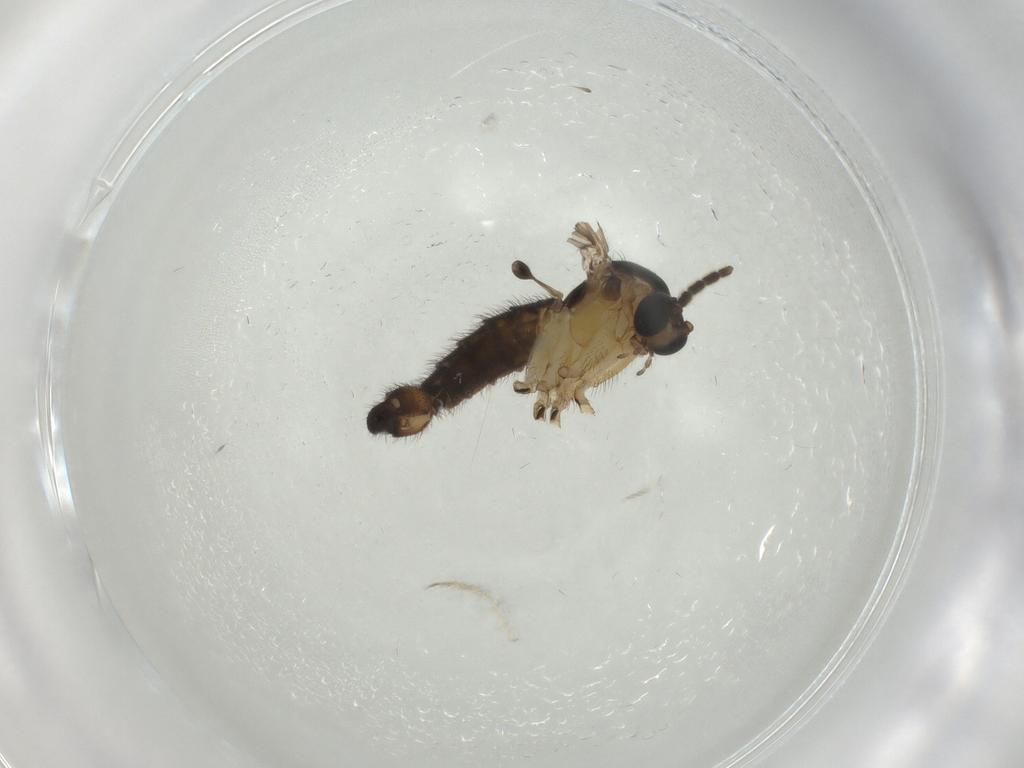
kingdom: Animalia
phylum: Arthropoda
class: Insecta
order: Diptera
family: Sciaridae
